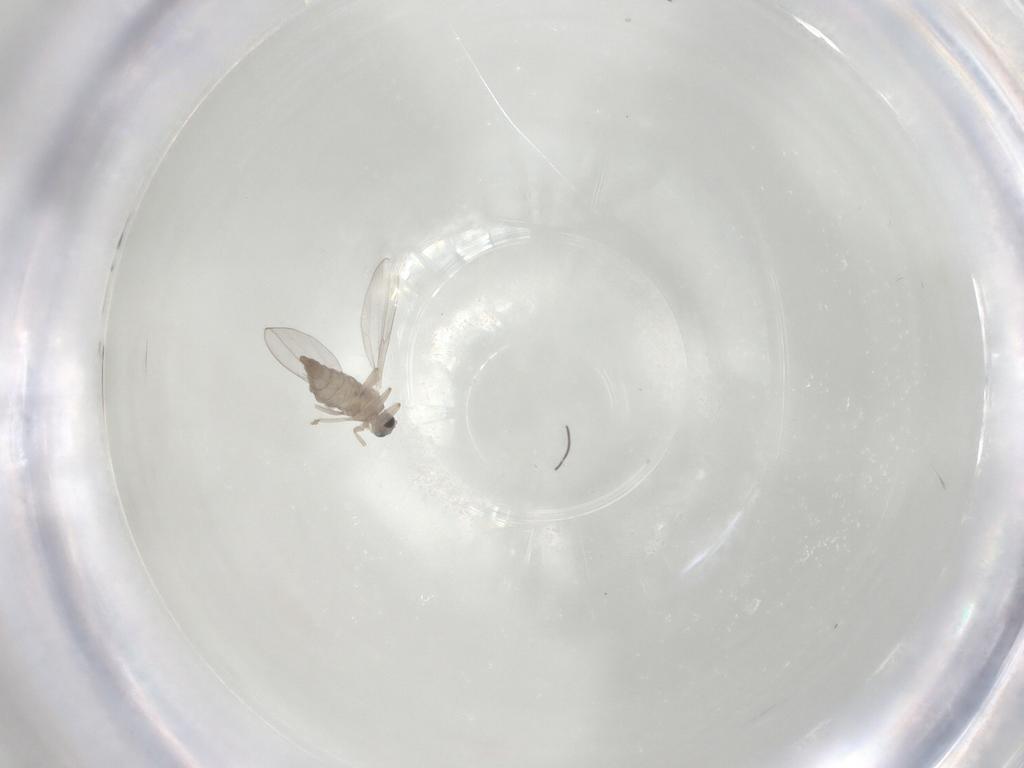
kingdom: Animalia
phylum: Arthropoda
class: Insecta
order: Diptera
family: Cecidomyiidae
